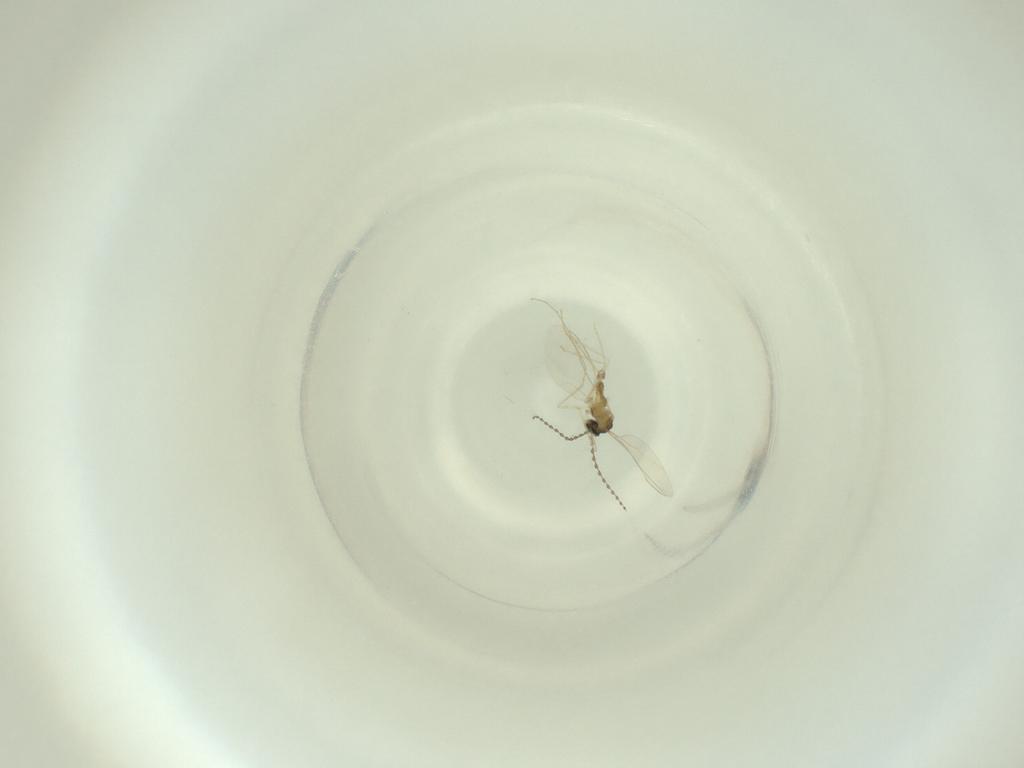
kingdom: Animalia
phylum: Arthropoda
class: Insecta
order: Diptera
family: Cecidomyiidae
